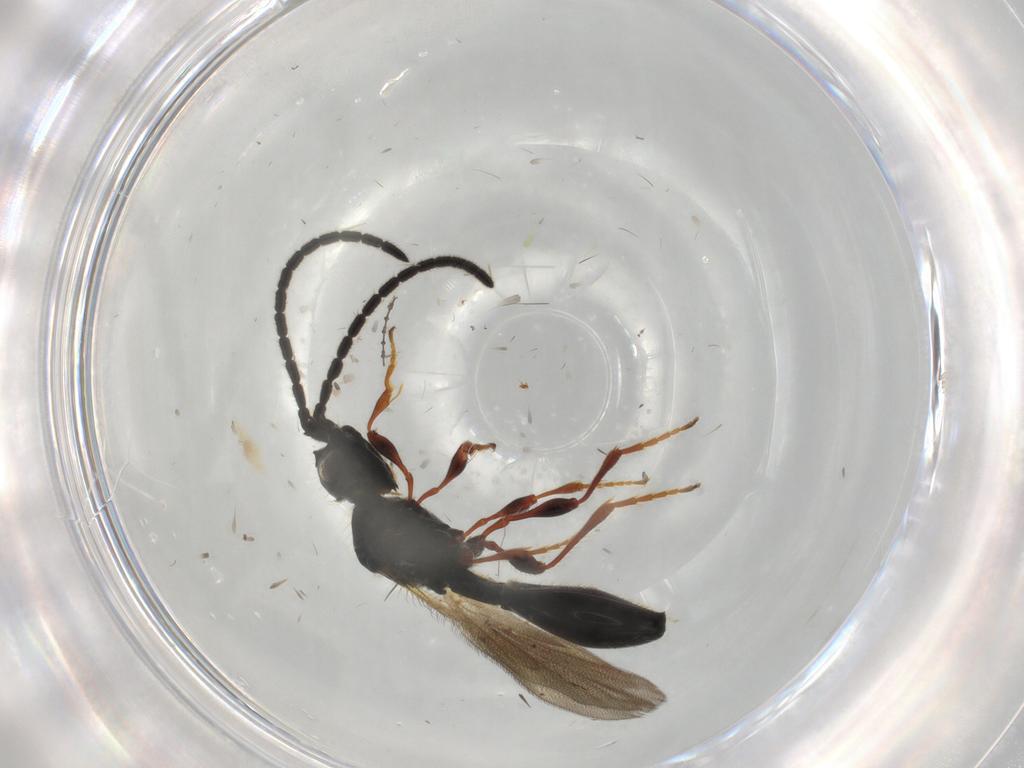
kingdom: Animalia
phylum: Arthropoda
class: Insecta
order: Hymenoptera
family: Diapriidae
